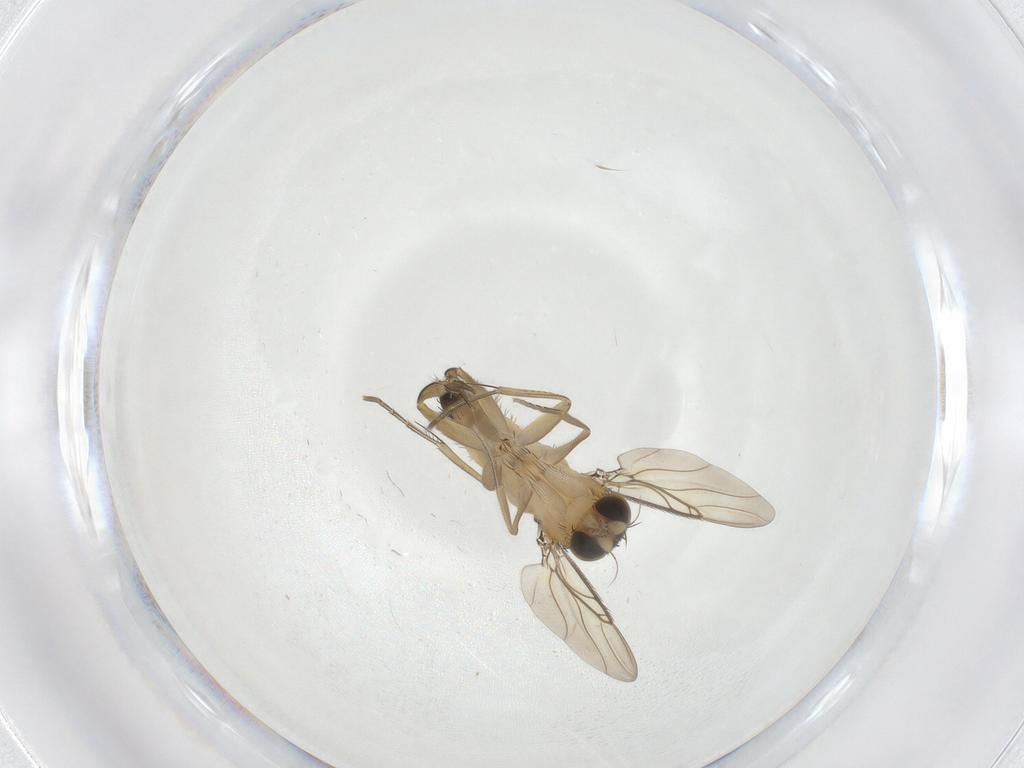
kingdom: Animalia
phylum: Arthropoda
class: Insecta
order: Diptera
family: Phoridae
